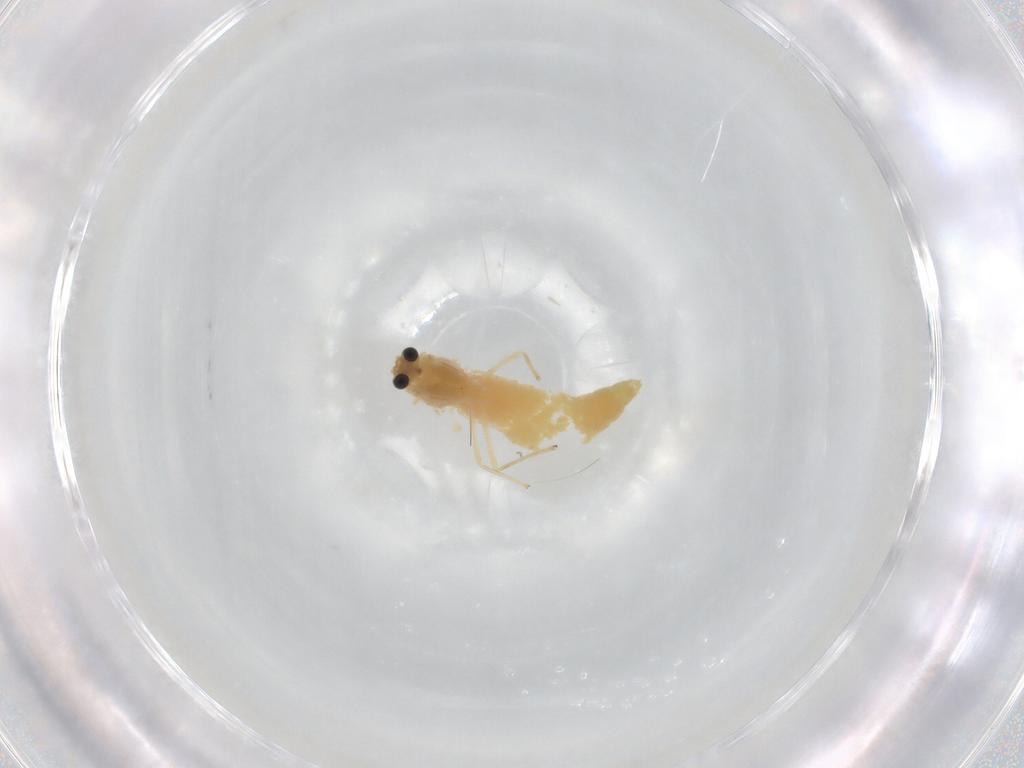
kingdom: Animalia
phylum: Arthropoda
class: Insecta
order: Diptera
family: Chironomidae
